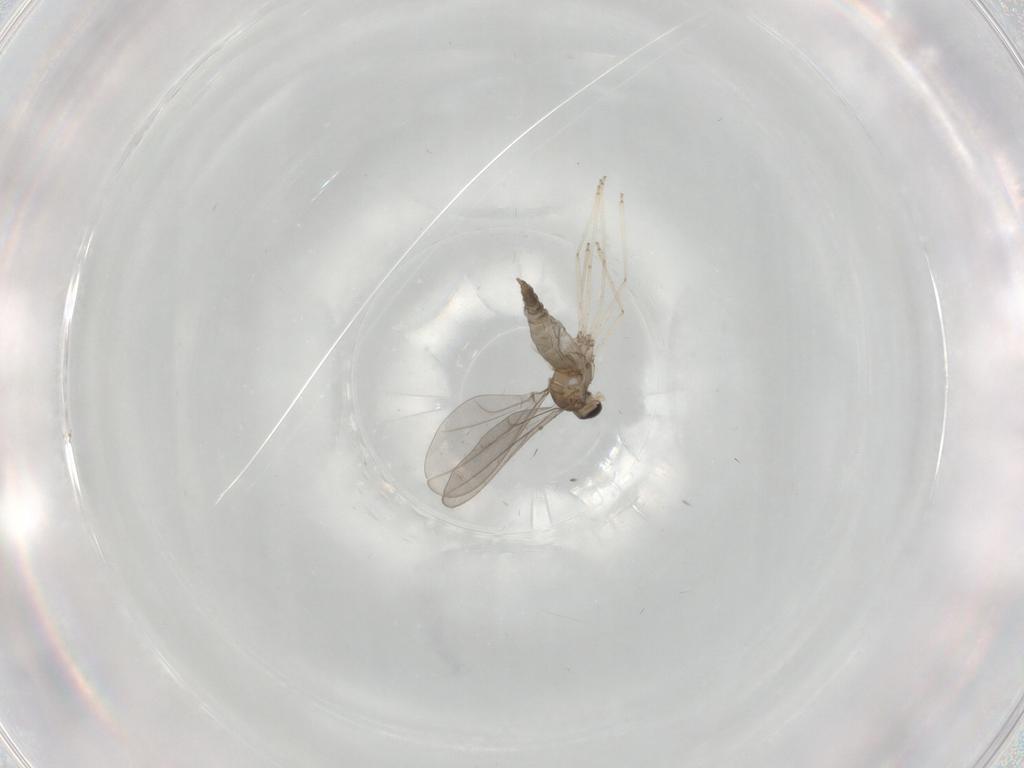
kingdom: Animalia
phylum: Arthropoda
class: Insecta
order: Diptera
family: Cecidomyiidae
